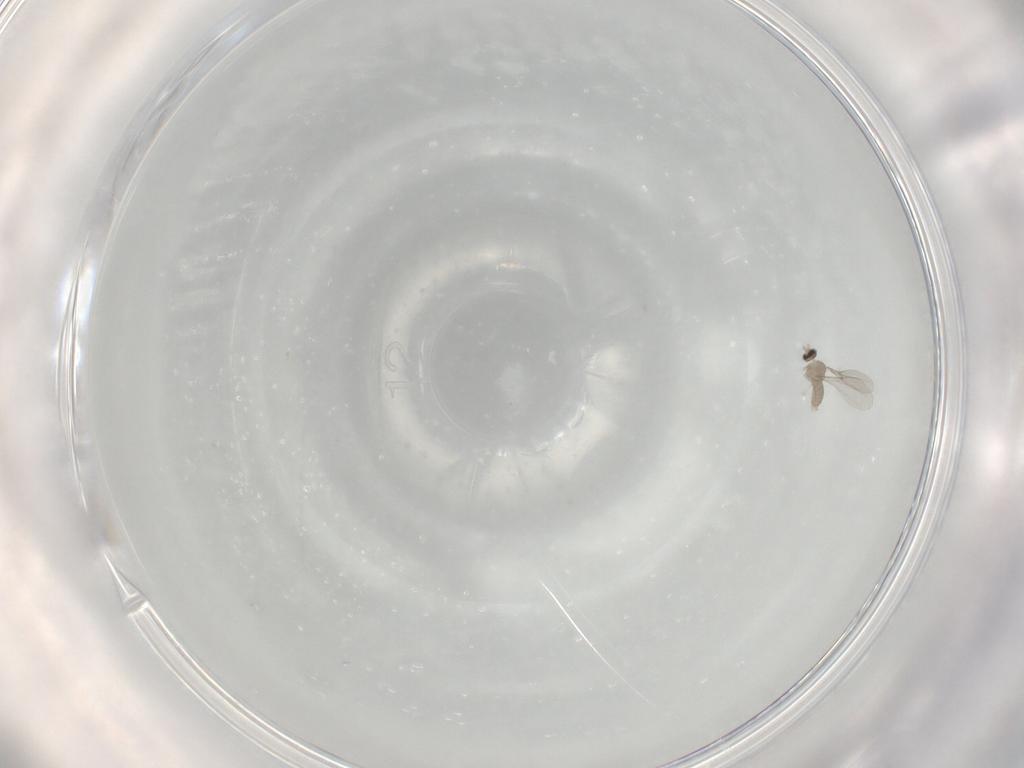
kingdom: Animalia
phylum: Arthropoda
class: Insecta
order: Diptera
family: Cecidomyiidae
